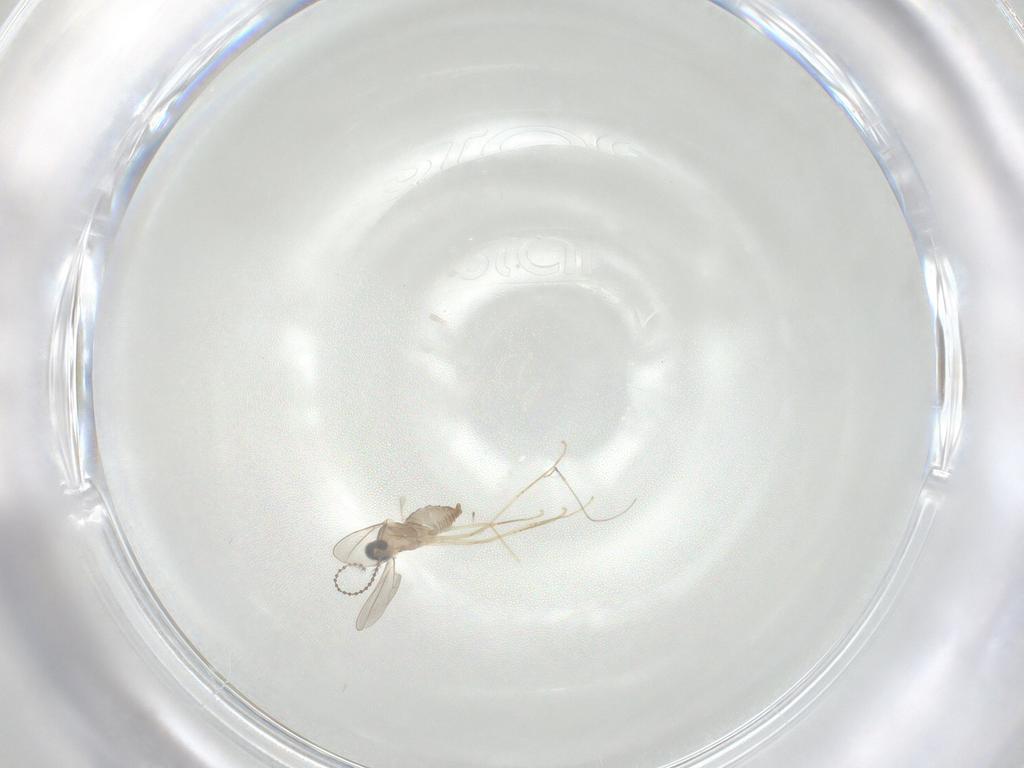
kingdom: Animalia
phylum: Arthropoda
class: Insecta
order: Diptera
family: Cecidomyiidae
